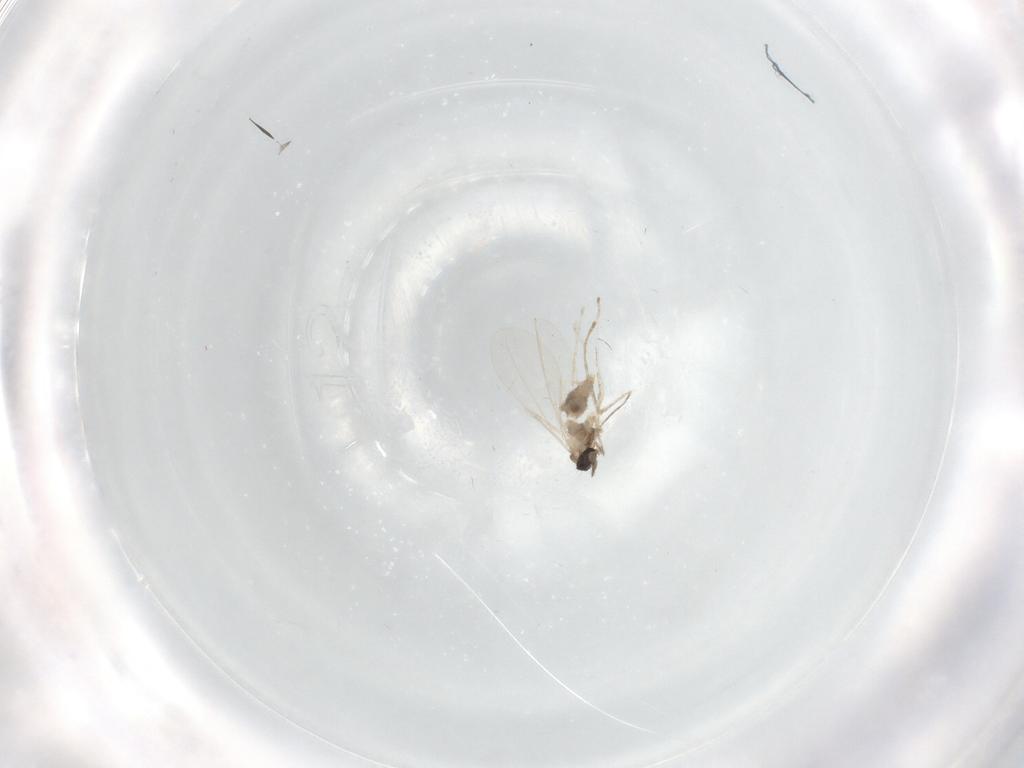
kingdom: Animalia
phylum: Arthropoda
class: Insecta
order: Diptera
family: Cecidomyiidae
